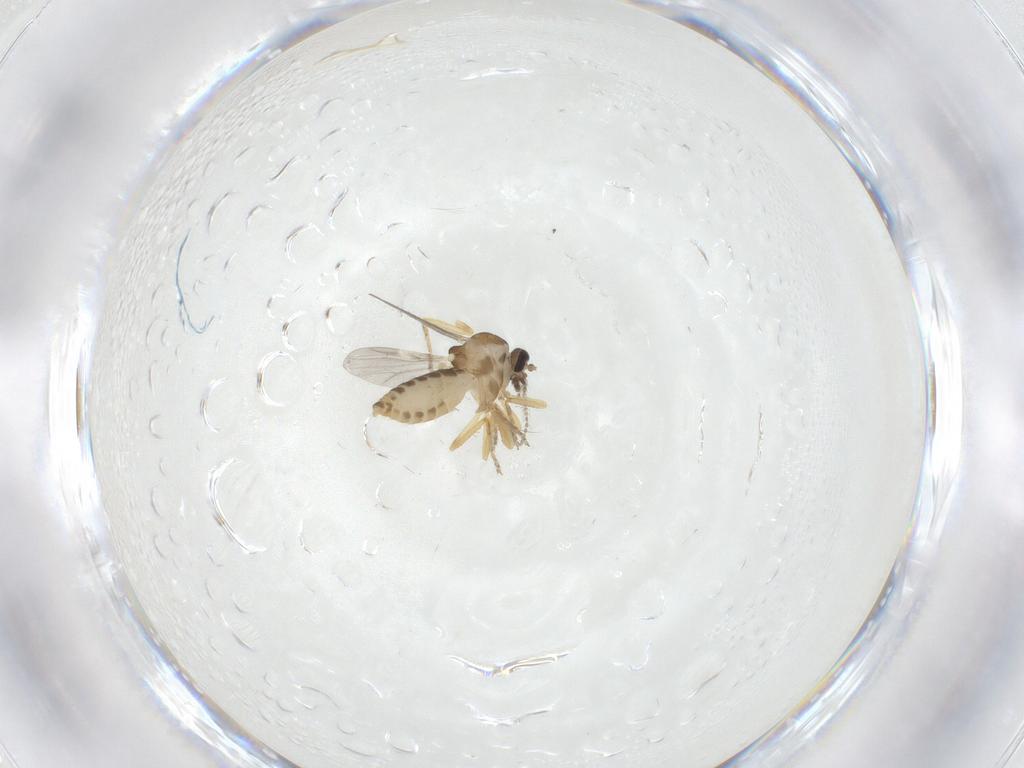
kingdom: Animalia
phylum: Arthropoda
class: Insecta
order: Diptera
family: Ceratopogonidae
